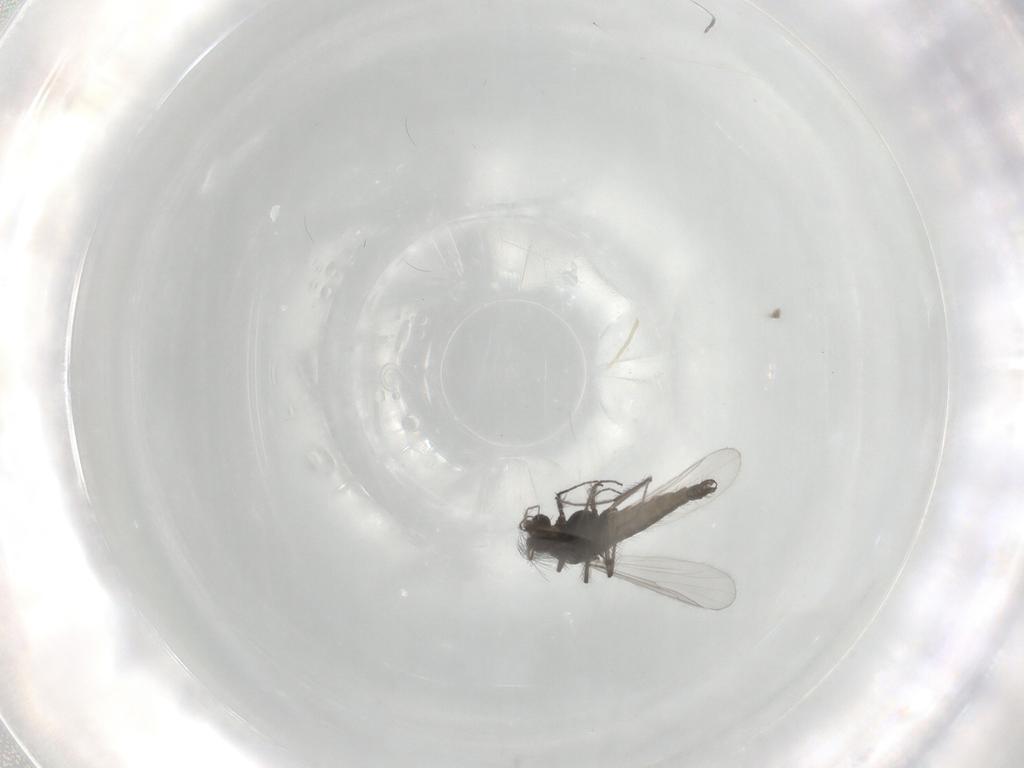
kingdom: Animalia
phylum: Arthropoda
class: Insecta
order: Diptera
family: Chironomidae
